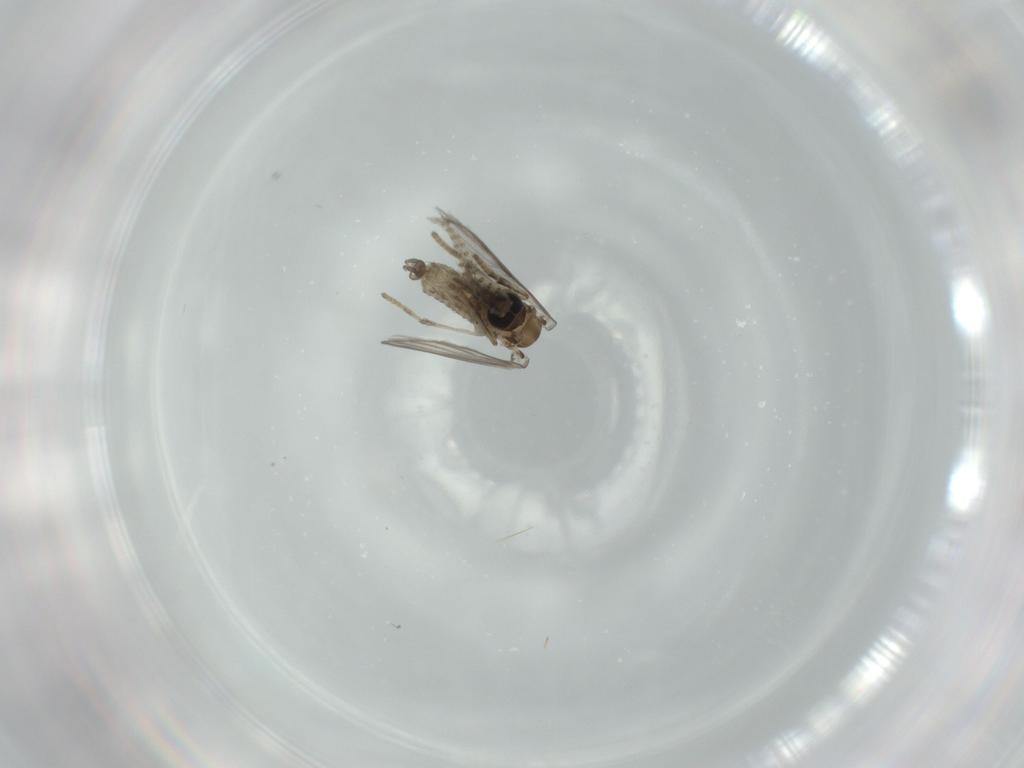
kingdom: Animalia
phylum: Arthropoda
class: Insecta
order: Diptera
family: Psychodidae
